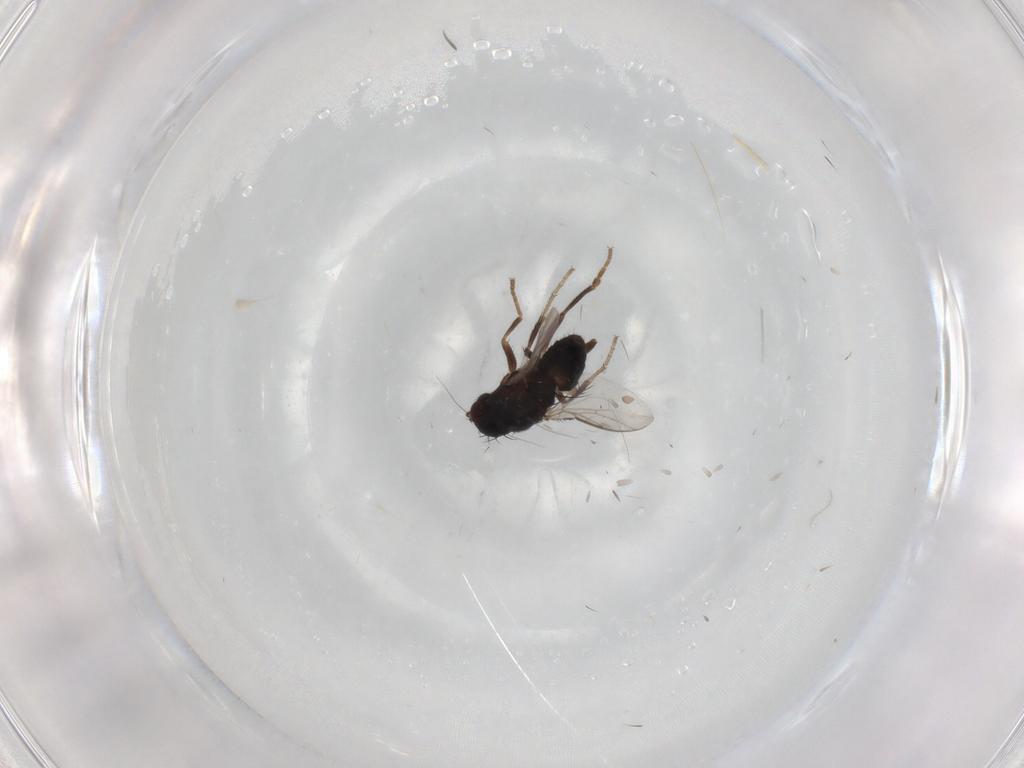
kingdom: Animalia
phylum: Arthropoda
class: Insecta
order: Diptera
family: Sphaeroceridae
